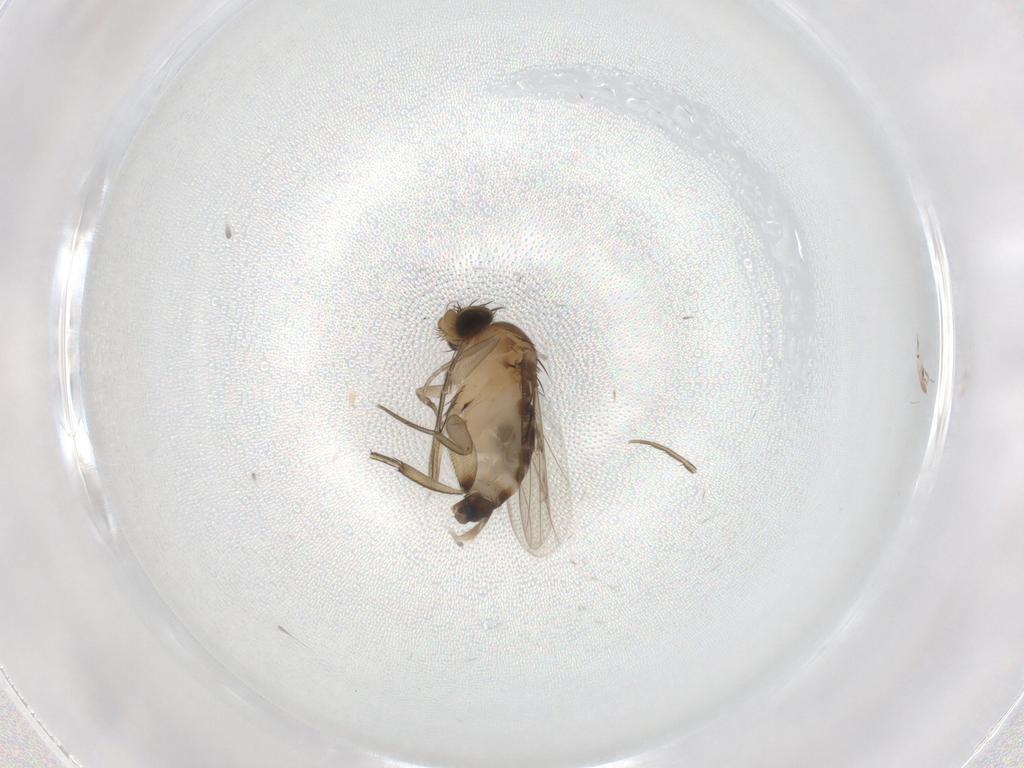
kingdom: Animalia
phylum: Arthropoda
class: Insecta
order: Diptera
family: Phoridae
